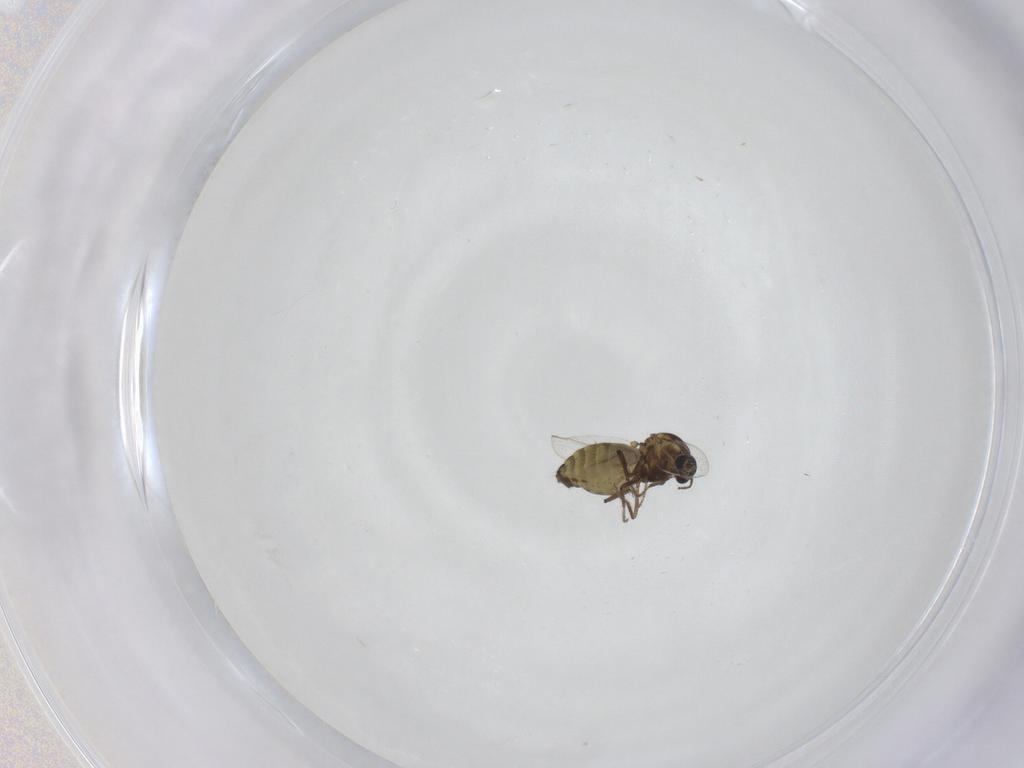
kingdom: Animalia
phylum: Arthropoda
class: Insecta
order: Diptera
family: Ceratopogonidae
